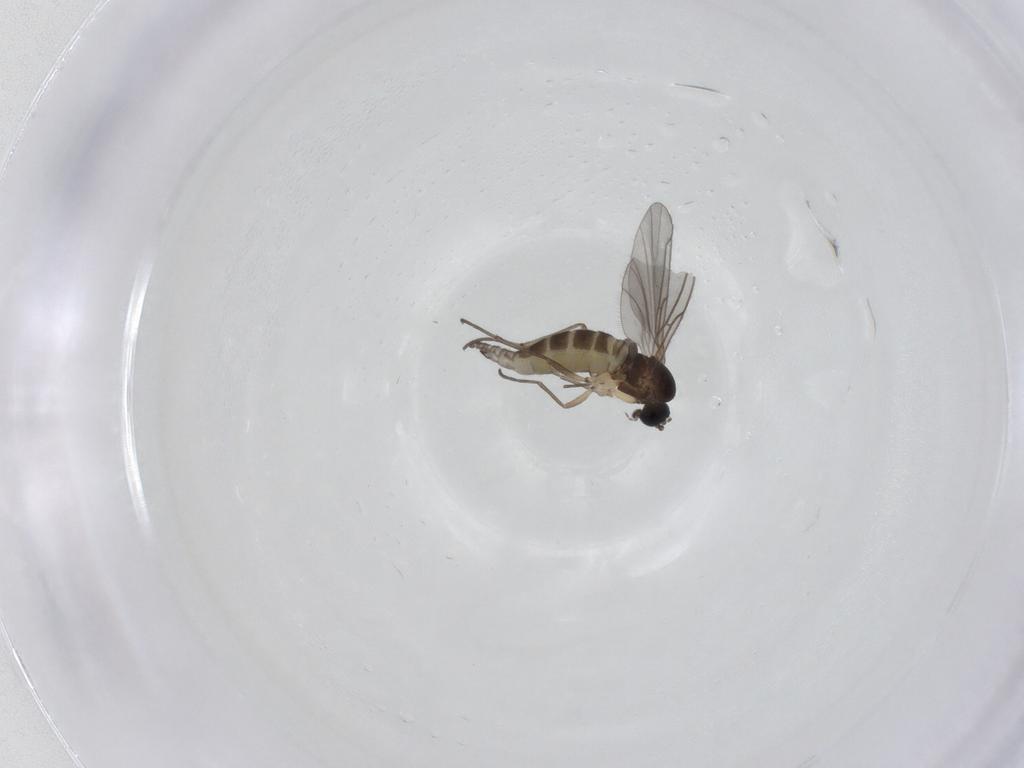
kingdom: Animalia
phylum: Arthropoda
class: Insecta
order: Diptera
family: Sciaridae
